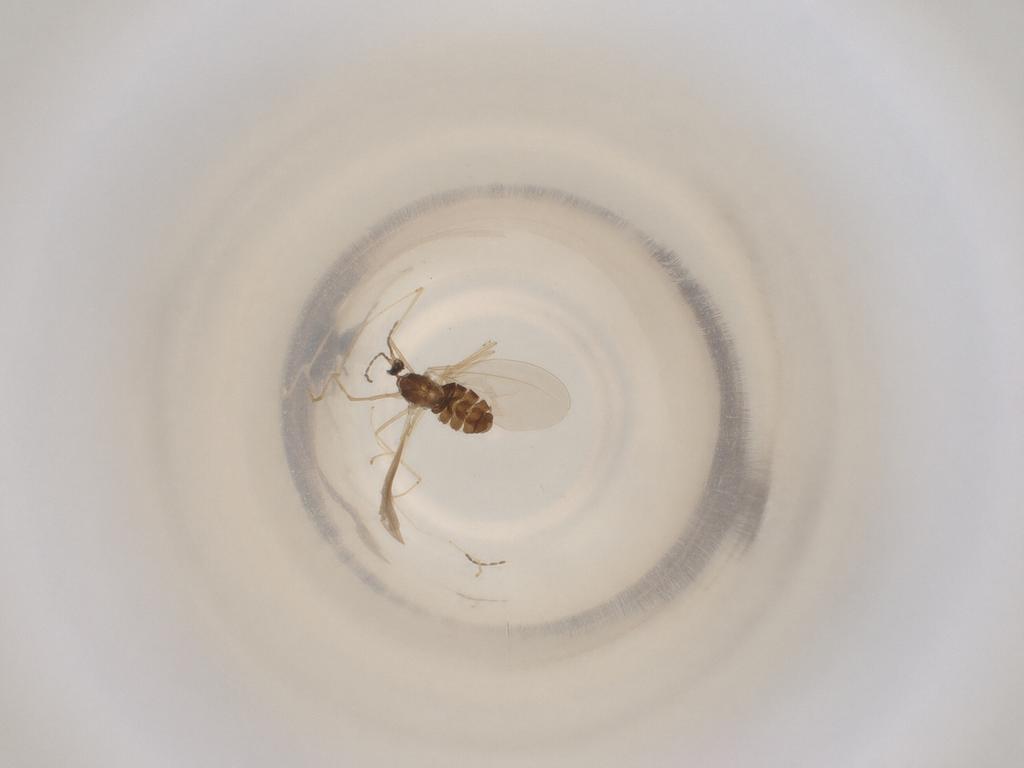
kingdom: Animalia
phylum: Arthropoda
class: Insecta
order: Diptera
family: Cecidomyiidae
